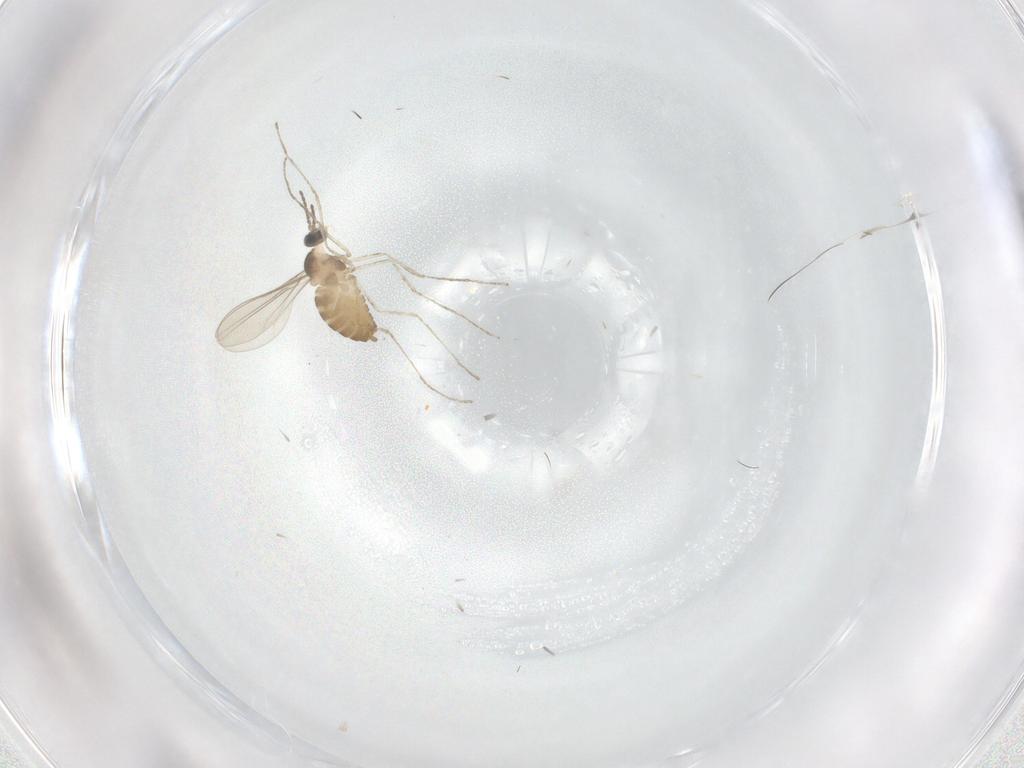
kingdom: Animalia
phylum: Arthropoda
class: Insecta
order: Diptera
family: Cecidomyiidae
